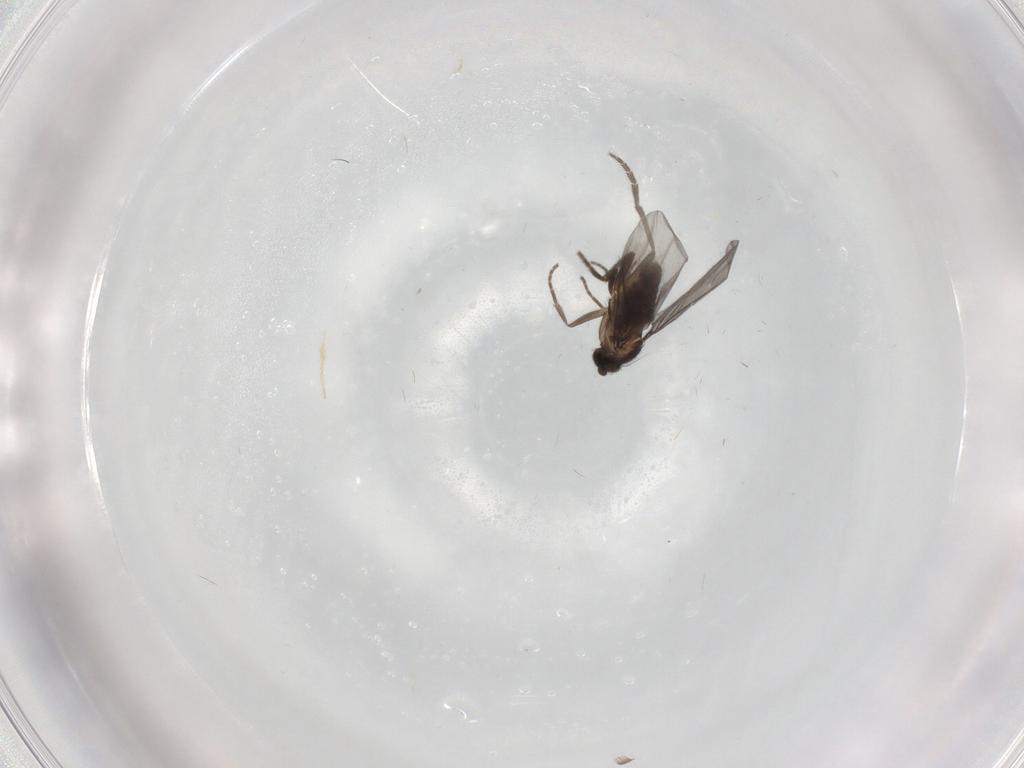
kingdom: Animalia
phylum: Arthropoda
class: Insecta
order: Diptera
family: Phoridae
